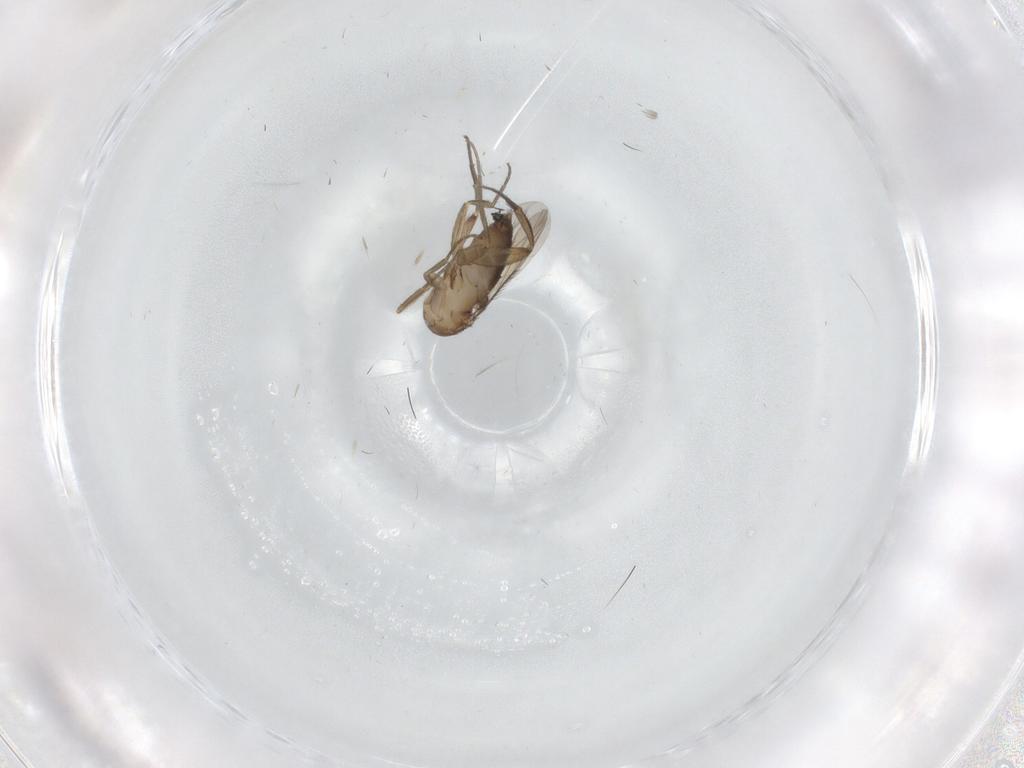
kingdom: Animalia
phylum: Arthropoda
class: Insecta
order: Diptera
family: Phoridae
